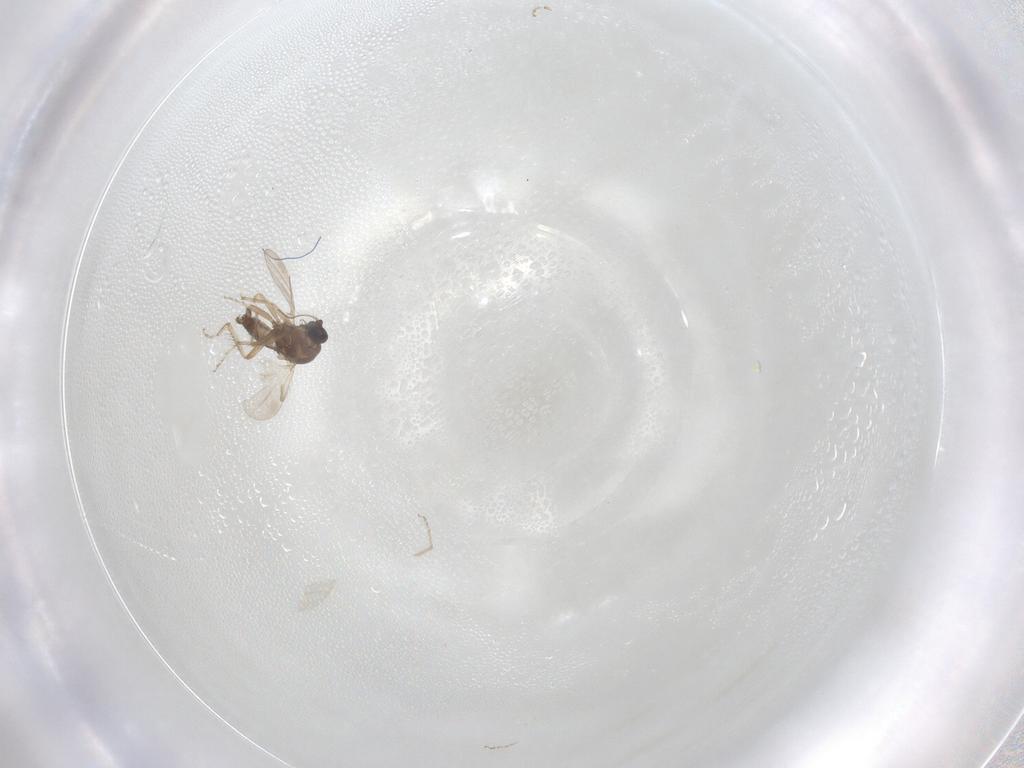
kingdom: Animalia
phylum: Arthropoda
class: Insecta
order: Diptera
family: Ceratopogonidae
